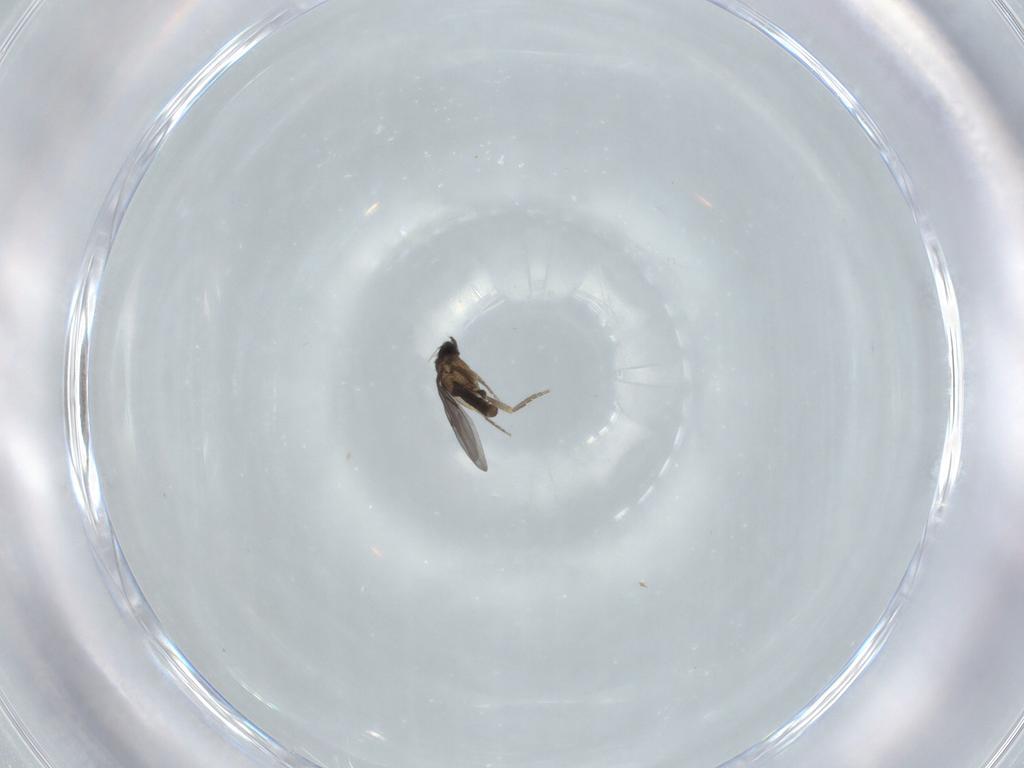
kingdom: Animalia
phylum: Arthropoda
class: Insecta
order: Diptera
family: Ceratopogonidae
